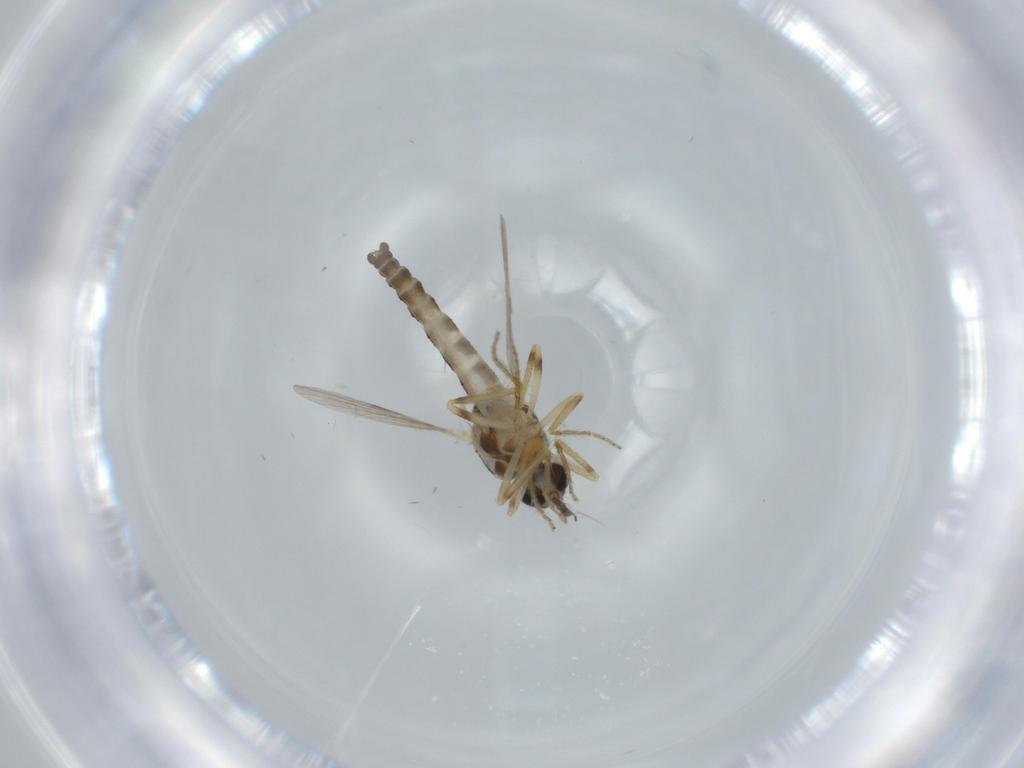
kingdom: Animalia
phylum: Arthropoda
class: Insecta
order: Diptera
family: Ceratopogonidae
